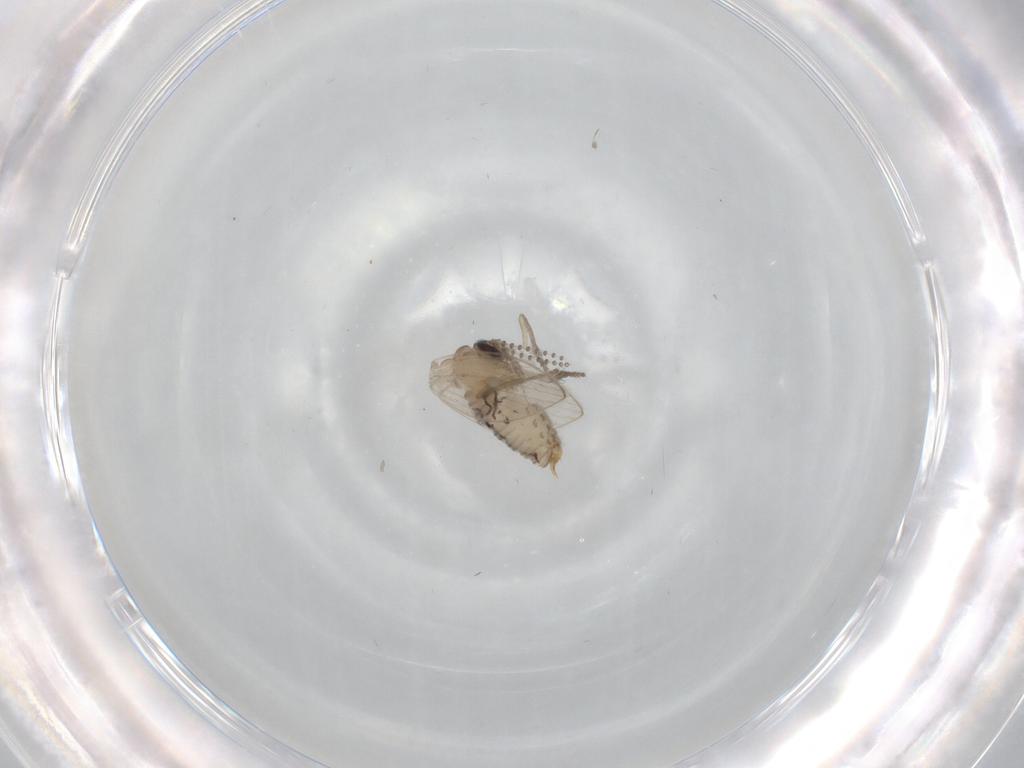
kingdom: Animalia
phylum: Arthropoda
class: Insecta
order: Diptera
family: Psychodidae
